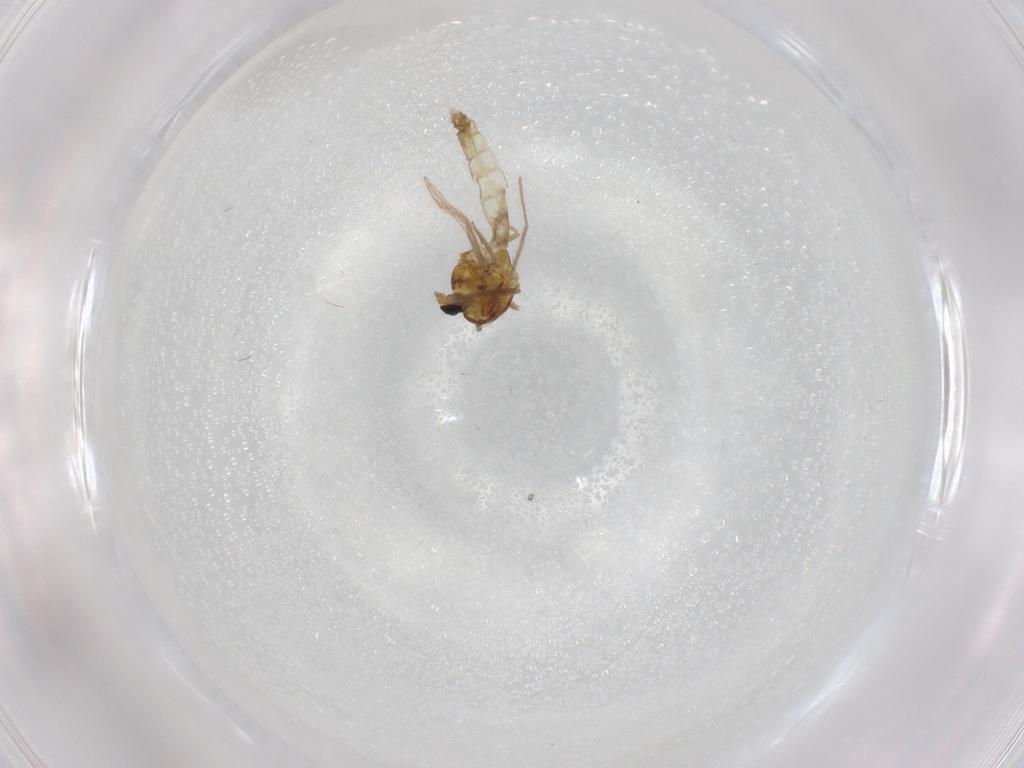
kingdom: Animalia
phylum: Arthropoda
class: Insecta
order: Diptera
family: Chironomidae
